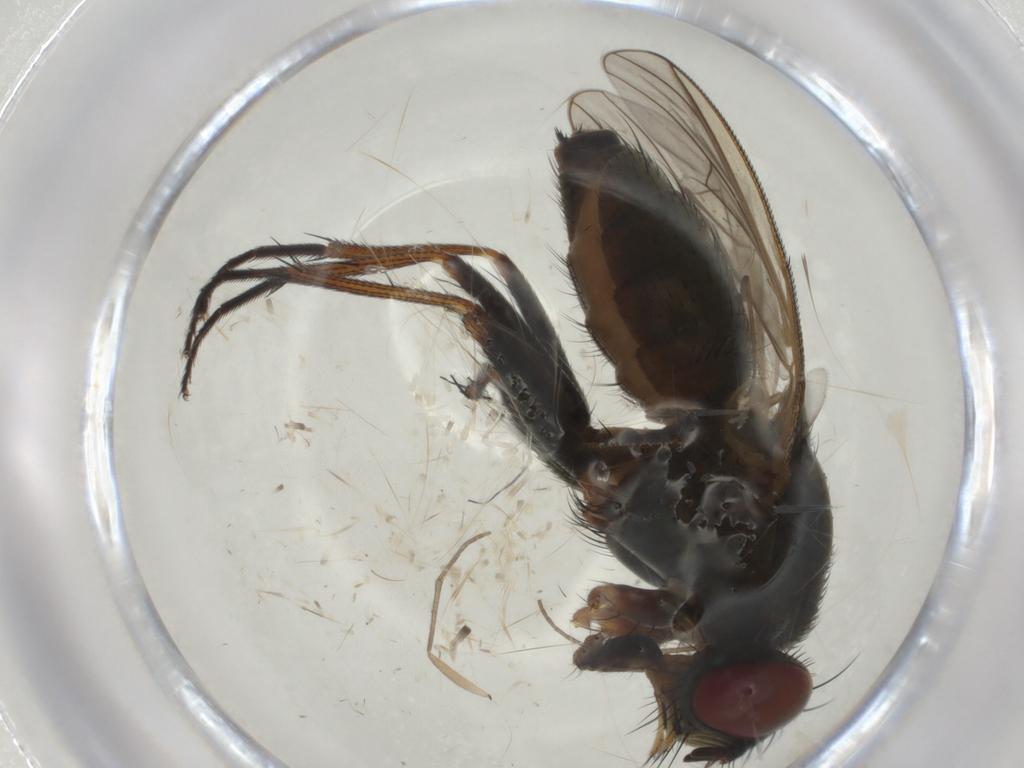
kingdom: Animalia
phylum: Arthropoda
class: Insecta
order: Diptera
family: Muscidae
